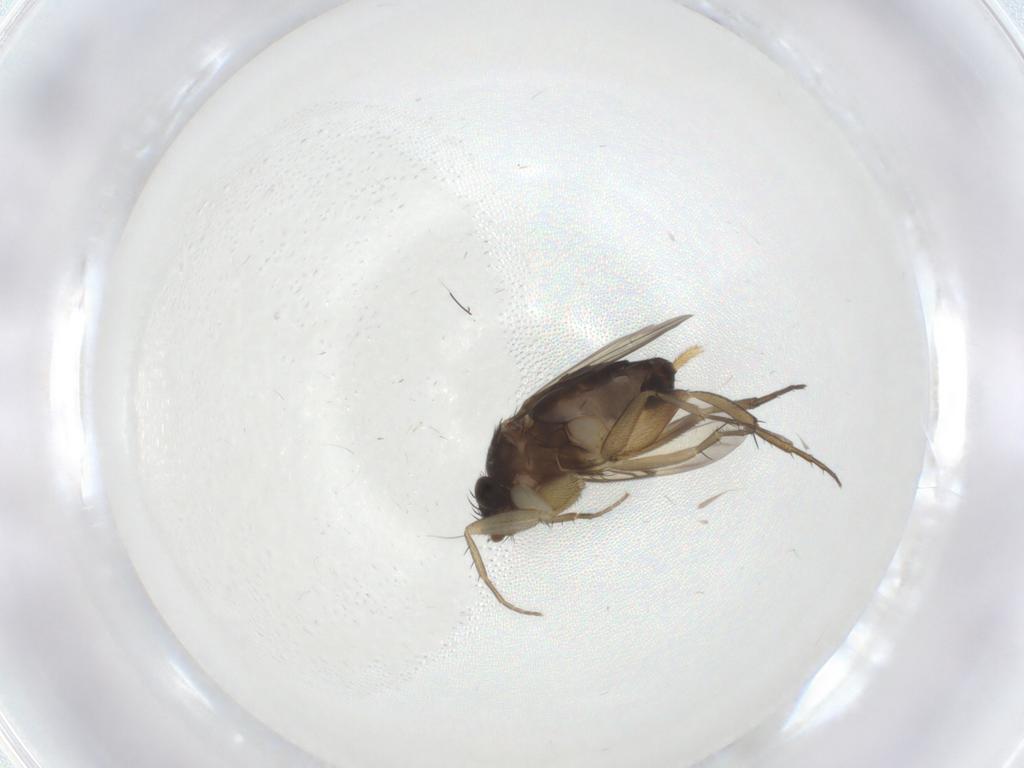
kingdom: Animalia
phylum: Arthropoda
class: Insecta
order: Diptera
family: Phoridae
